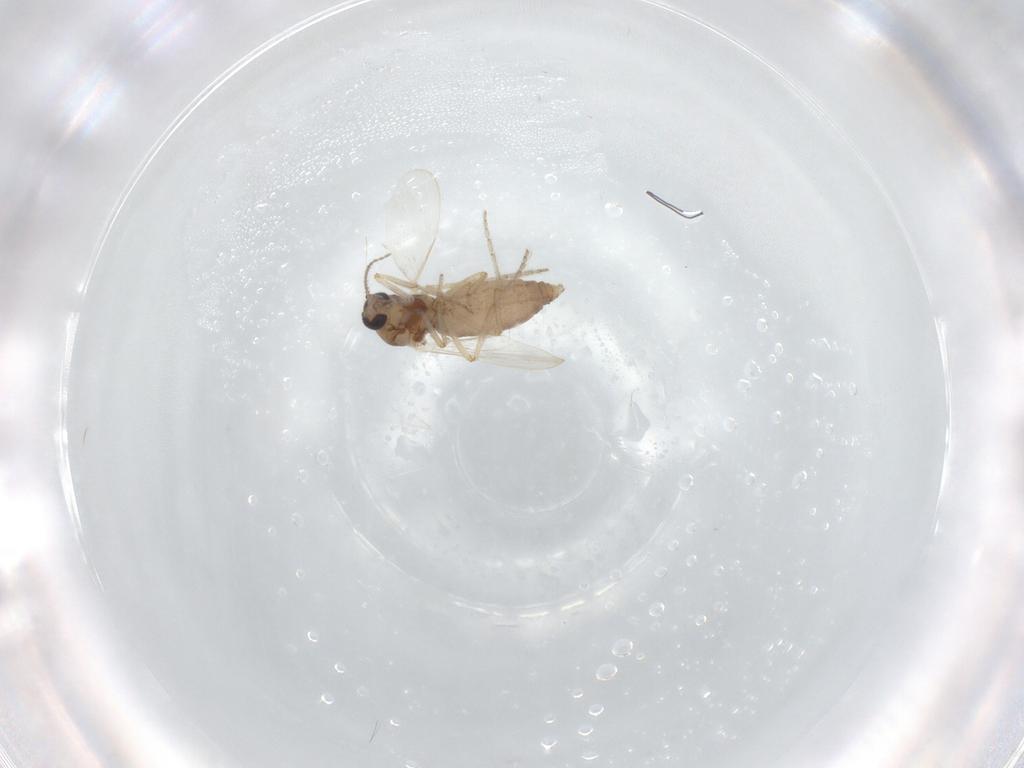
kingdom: Animalia
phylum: Arthropoda
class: Insecta
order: Diptera
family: Ceratopogonidae
